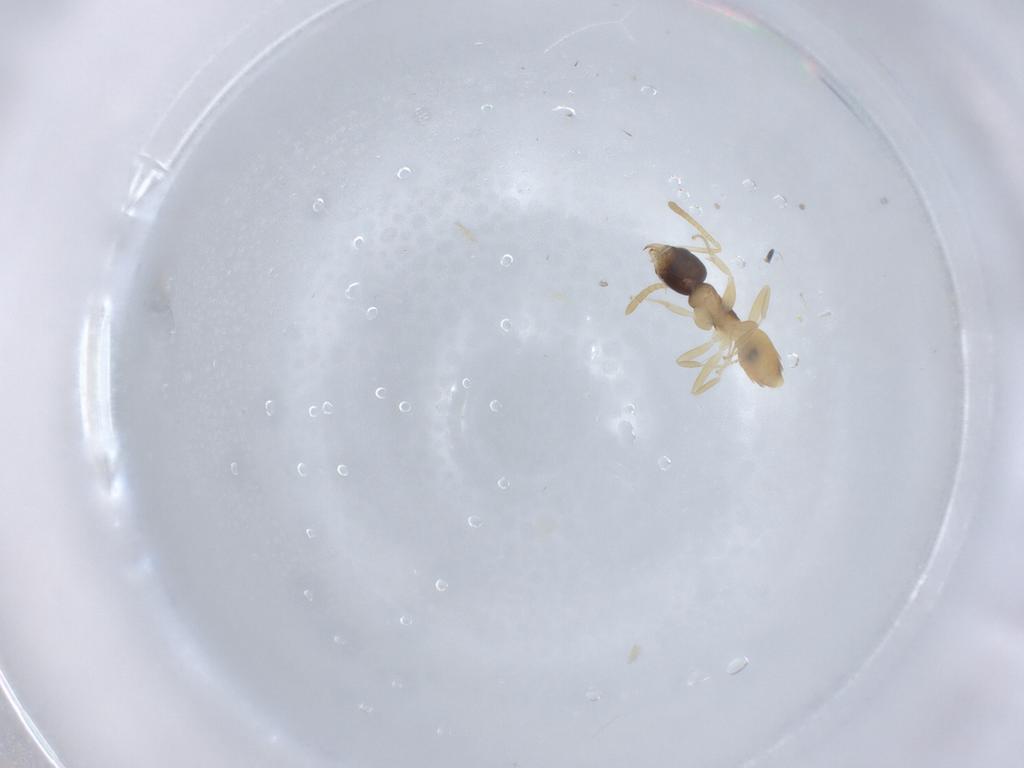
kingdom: Animalia
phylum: Arthropoda
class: Insecta
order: Hymenoptera
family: Formicidae
